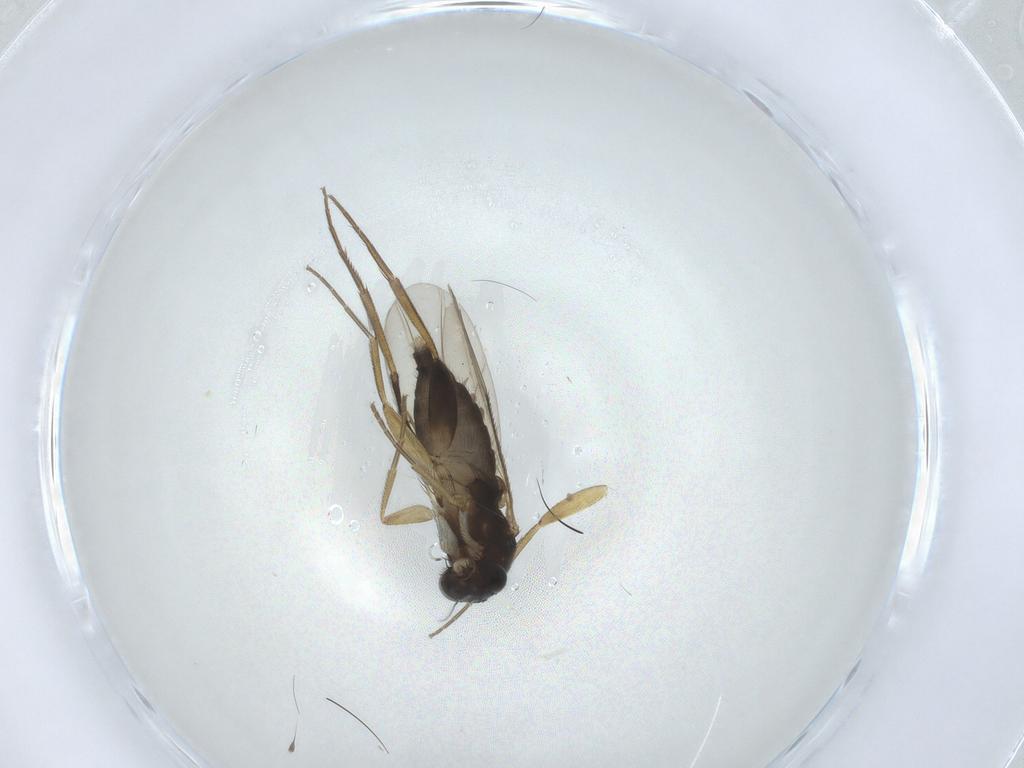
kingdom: Animalia
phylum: Arthropoda
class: Insecta
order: Diptera
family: Phoridae
